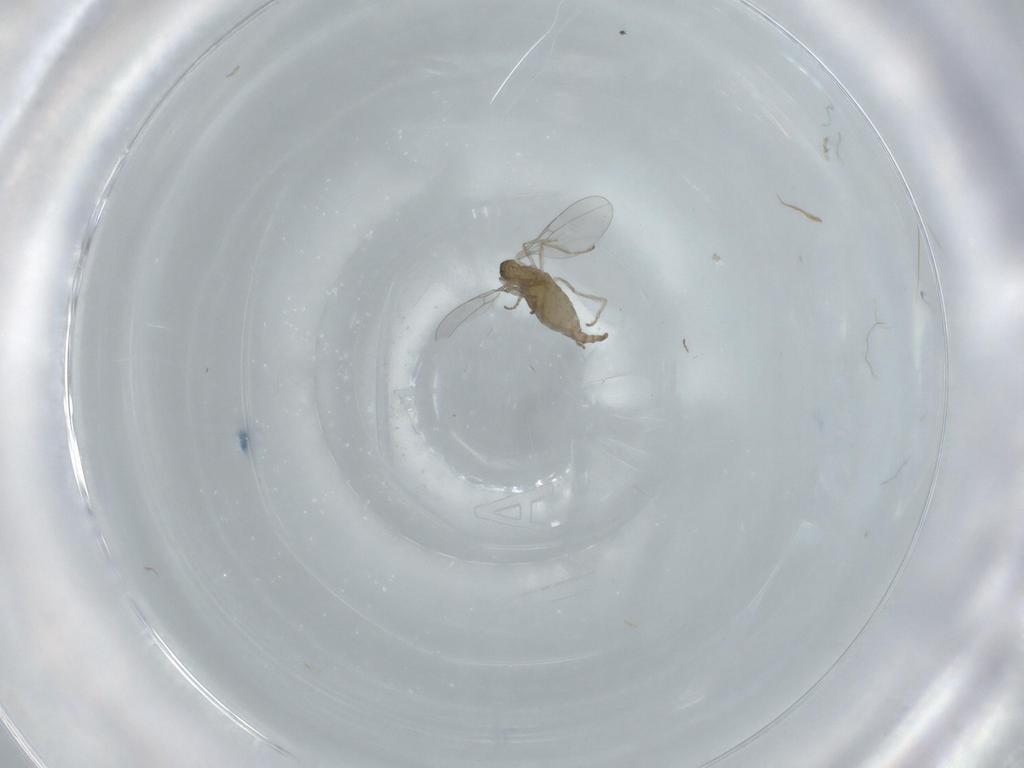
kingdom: Animalia
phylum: Arthropoda
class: Insecta
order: Diptera
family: Cecidomyiidae
